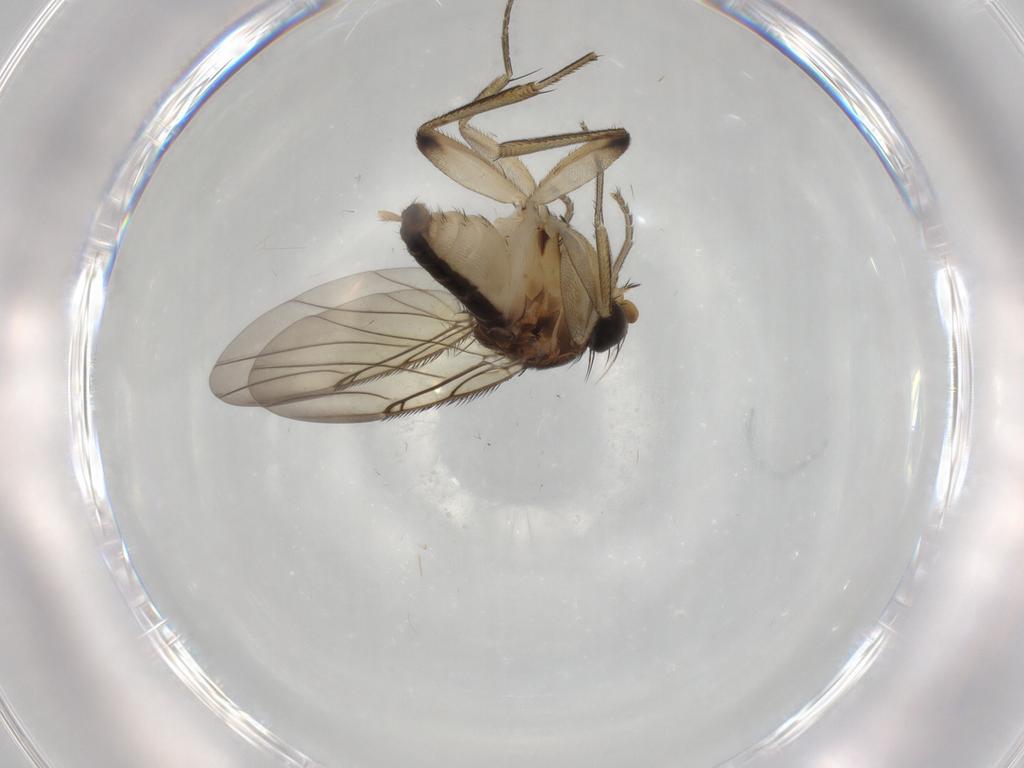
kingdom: Animalia
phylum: Arthropoda
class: Insecta
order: Diptera
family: Phoridae
